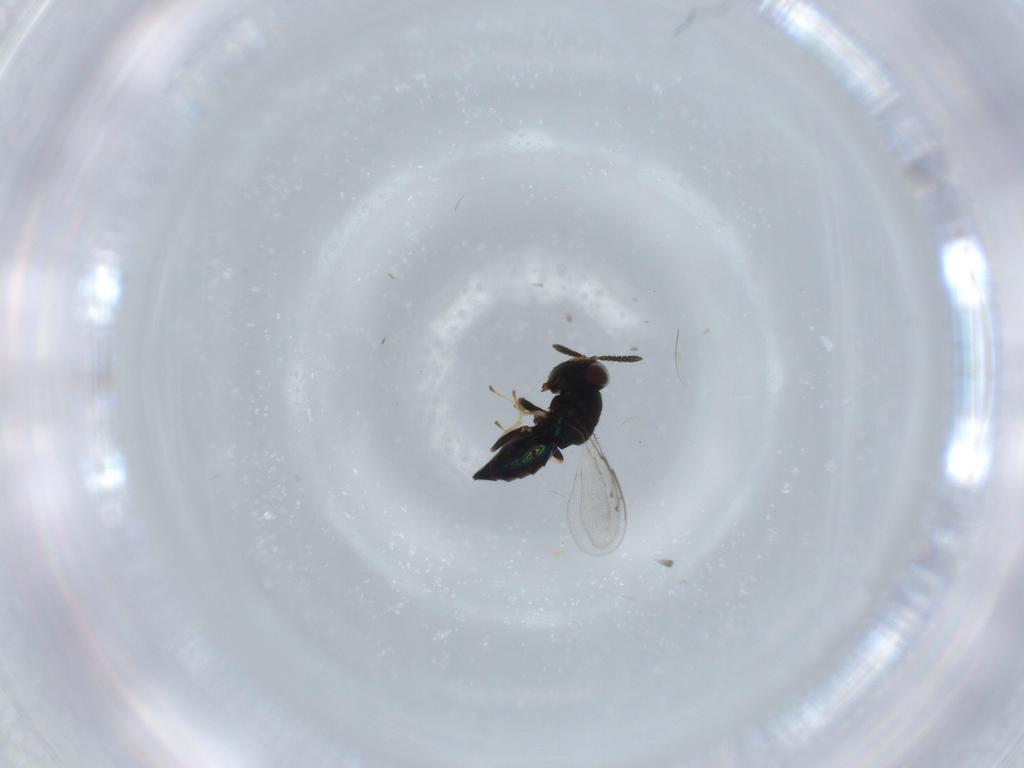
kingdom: Animalia
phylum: Arthropoda
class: Insecta
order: Hymenoptera
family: Pteromalidae
